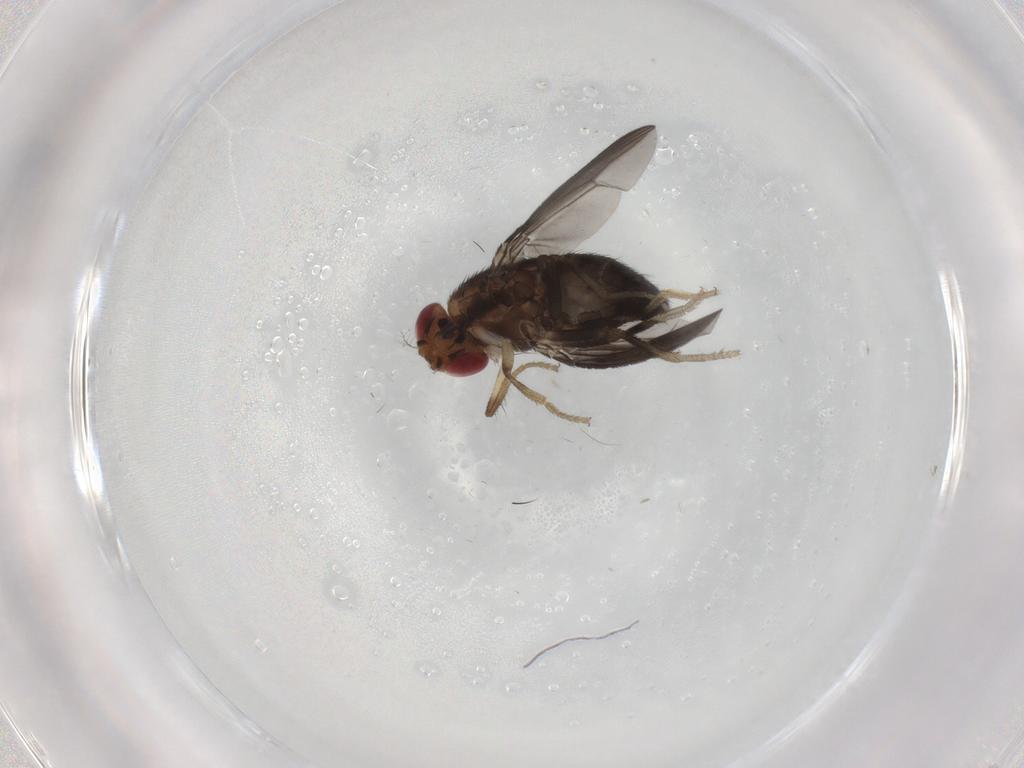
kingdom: Animalia
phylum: Arthropoda
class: Insecta
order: Diptera
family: Drosophilidae
